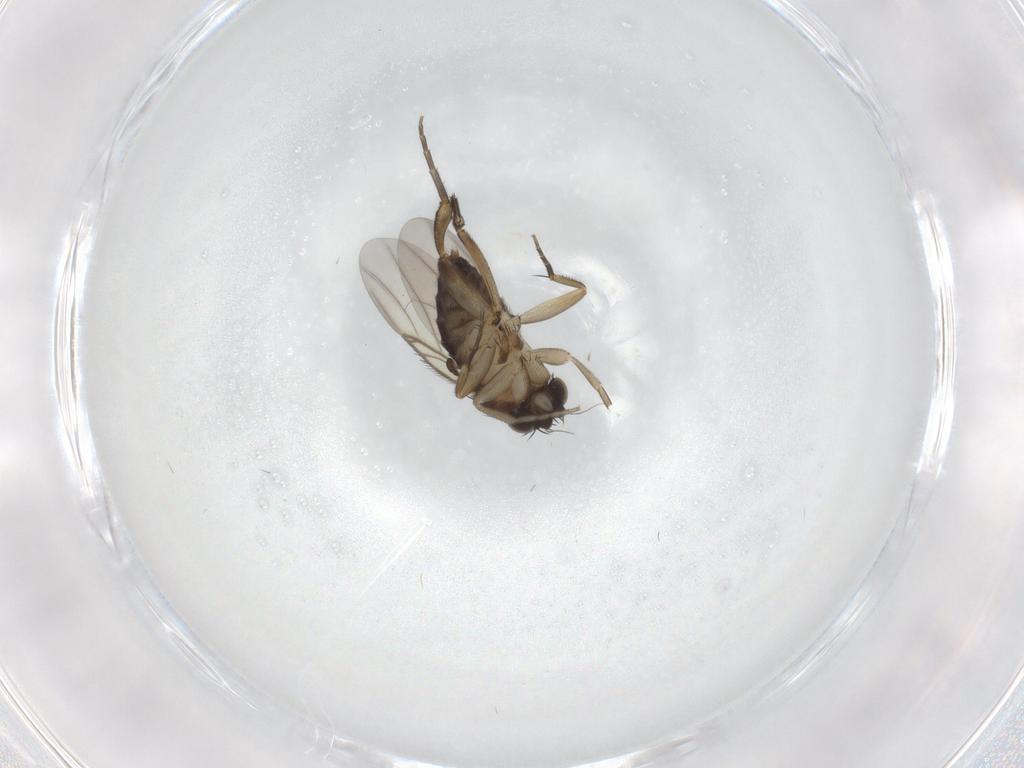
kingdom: Animalia
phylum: Arthropoda
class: Insecta
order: Diptera
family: Phoridae
